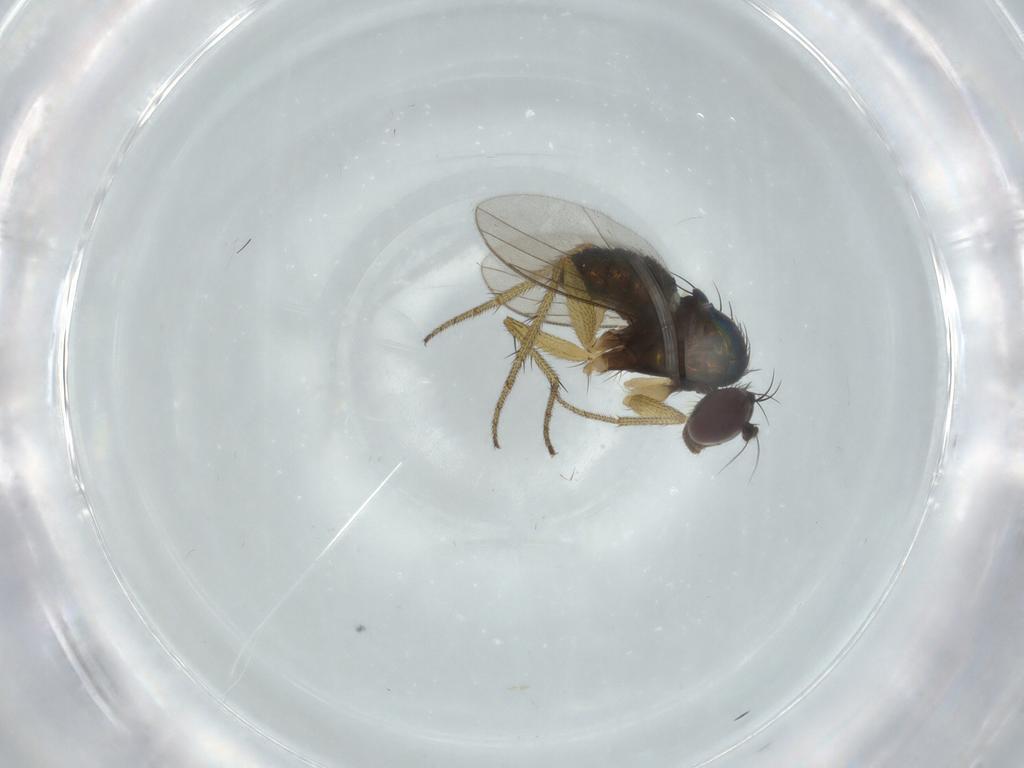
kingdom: Animalia
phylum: Arthropoda
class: Insecta
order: Diptera
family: Dolichopodidae
